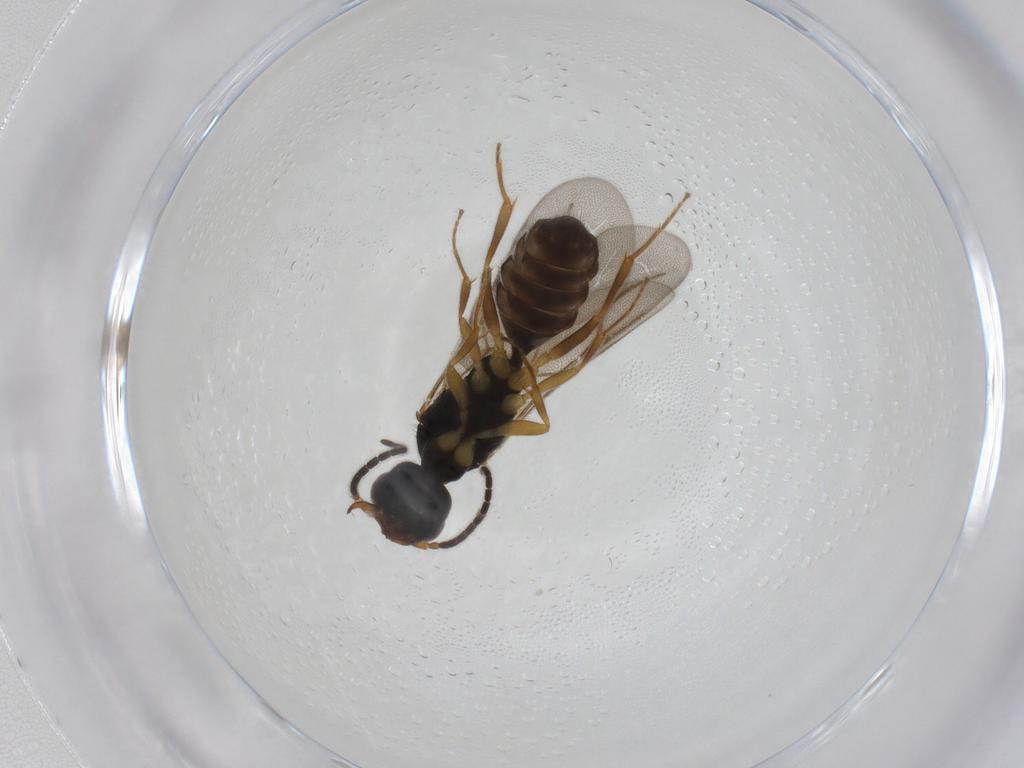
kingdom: Animalia
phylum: Arthropoda
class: Insecta
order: Hymenoptera
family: Bethylidae
